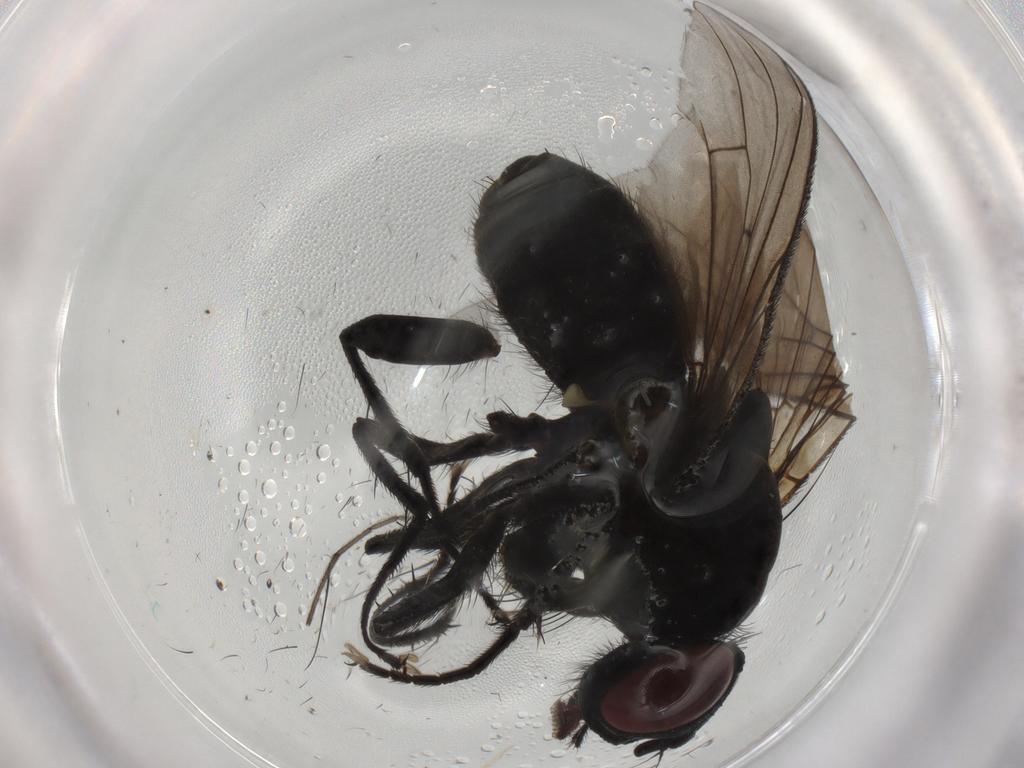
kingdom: Animalia
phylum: Arthropoda
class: Insecta
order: Diptera
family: Muscidae
